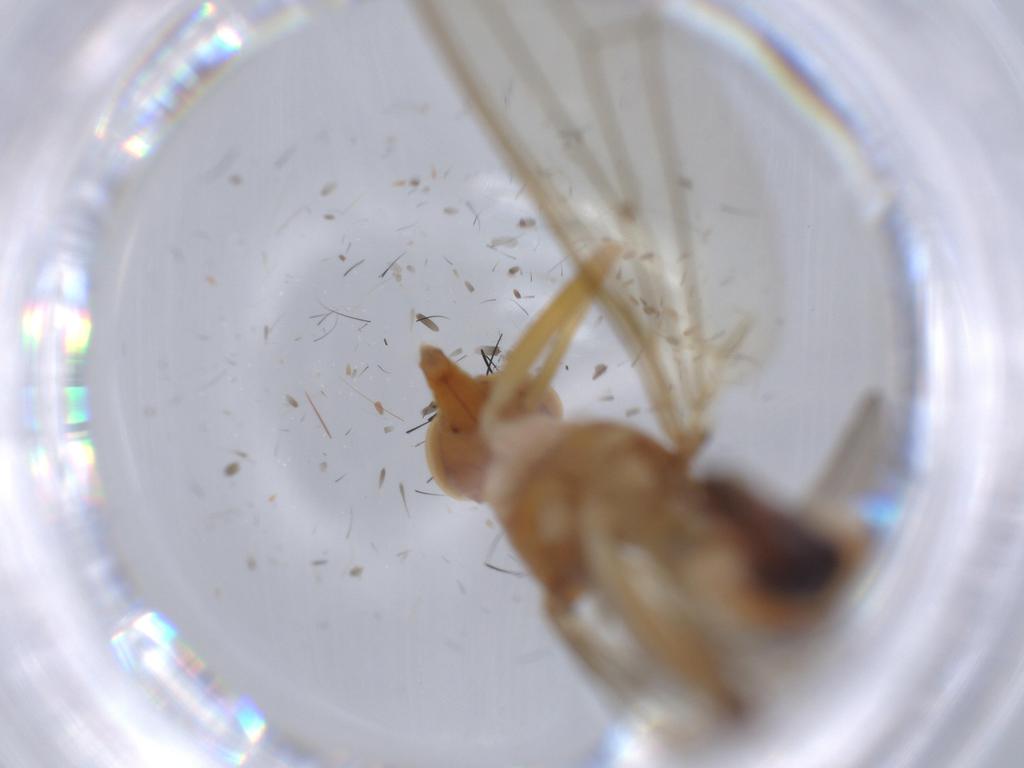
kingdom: Animalia
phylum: Arthropoda
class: Insecta
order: Diptera
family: Micropezidae
